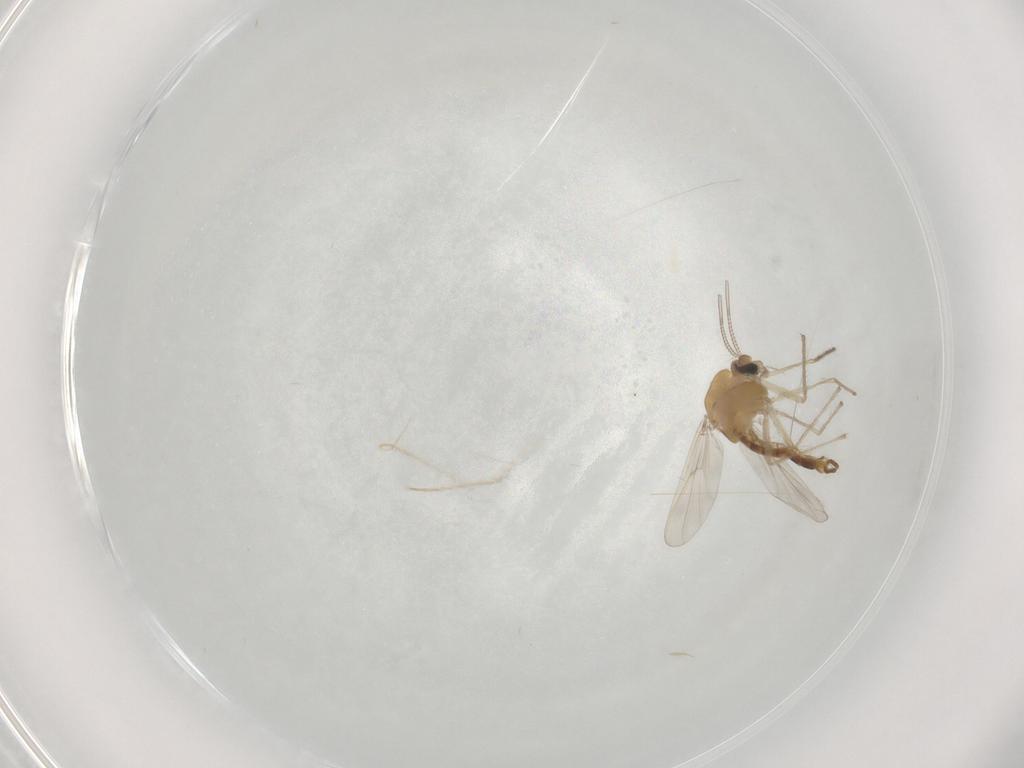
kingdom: Animalia
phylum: Arthropoda
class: Insecta
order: Diptera
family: Chironomidae
